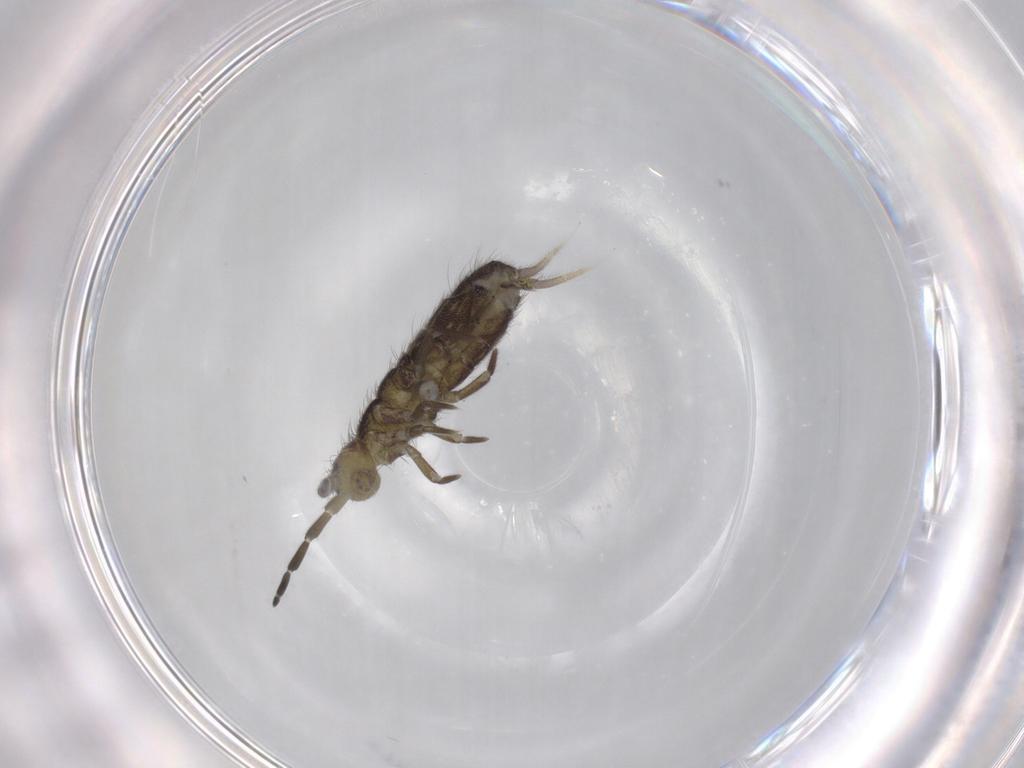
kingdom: Animalia
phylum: Arthropoda
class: Collembola
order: Entomobryomorpha
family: Isotomidae
